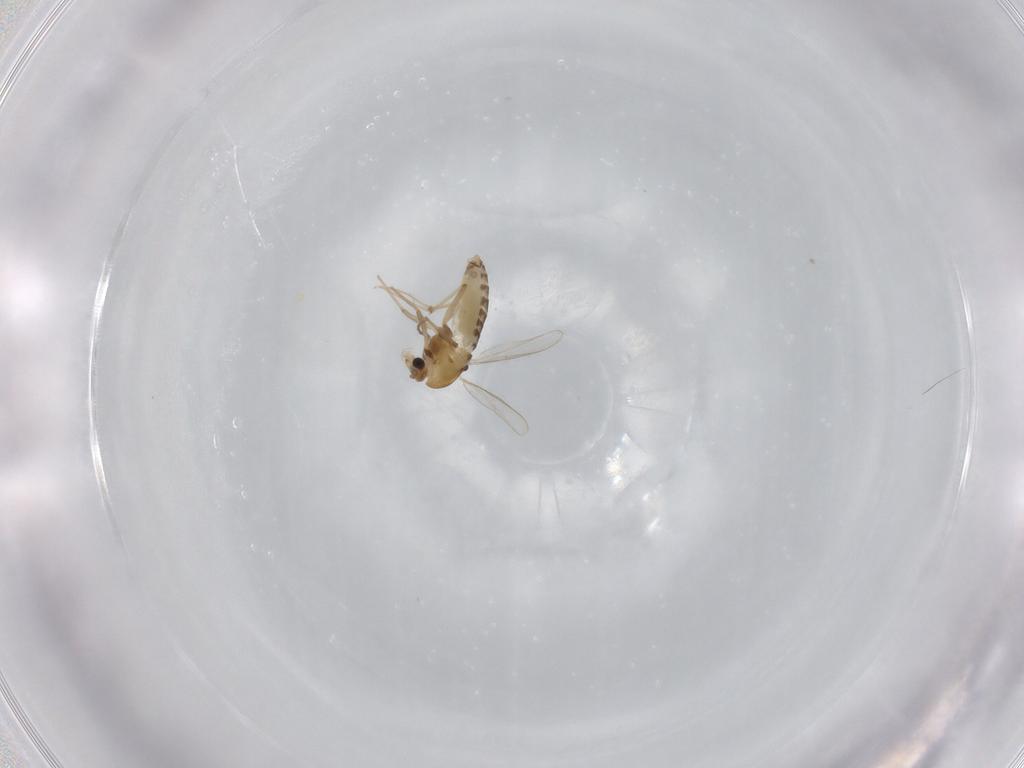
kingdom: Animalia
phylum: Arthropoda
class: Insecta
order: Diptera
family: Chironomidae
